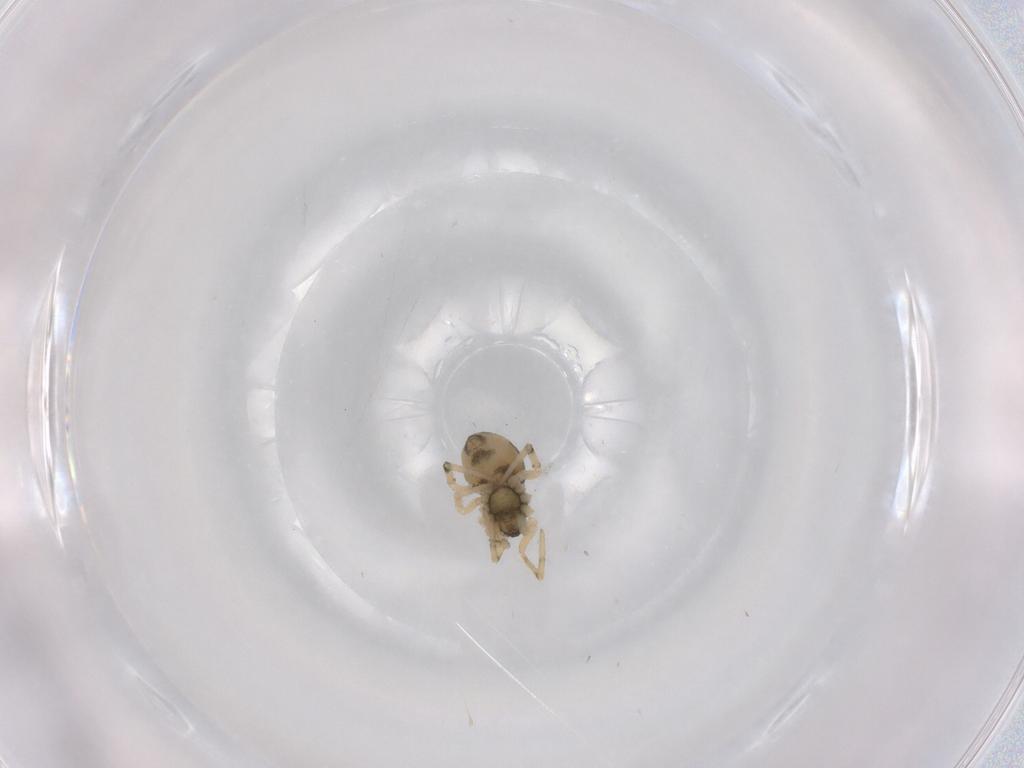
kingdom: Animalia
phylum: Arthropoda
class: Arachnida
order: Araneae
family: Theridiidae
